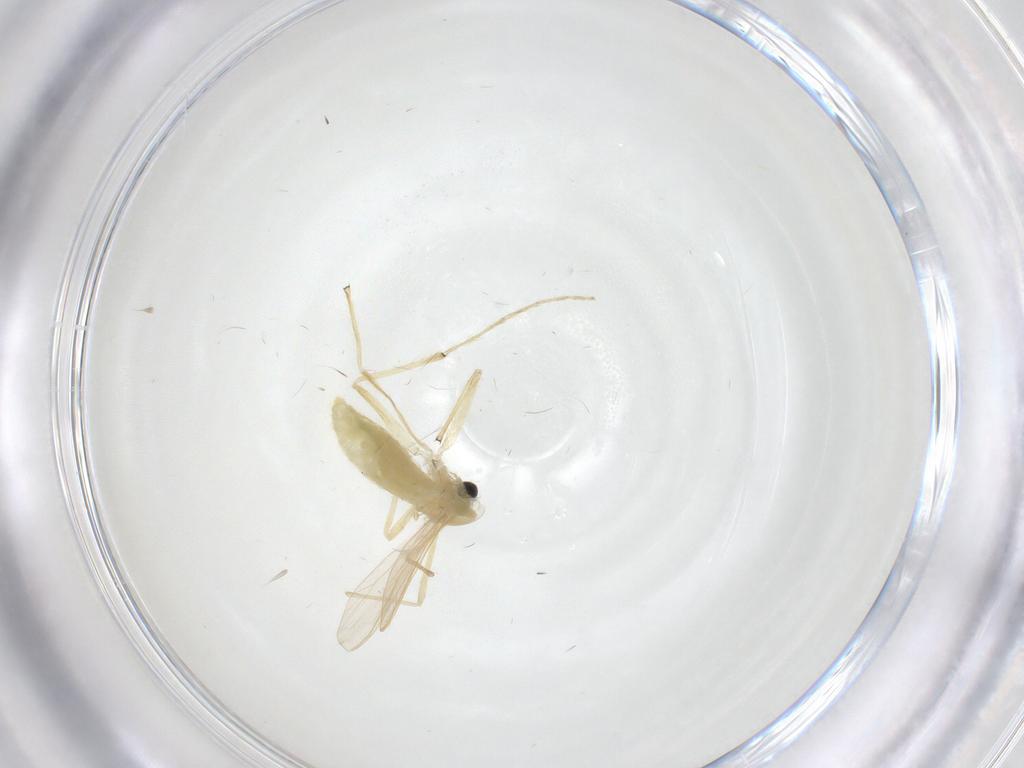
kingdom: Animalia
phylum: Arthropoda
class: Insecta
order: Diptera
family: Chironomidae
